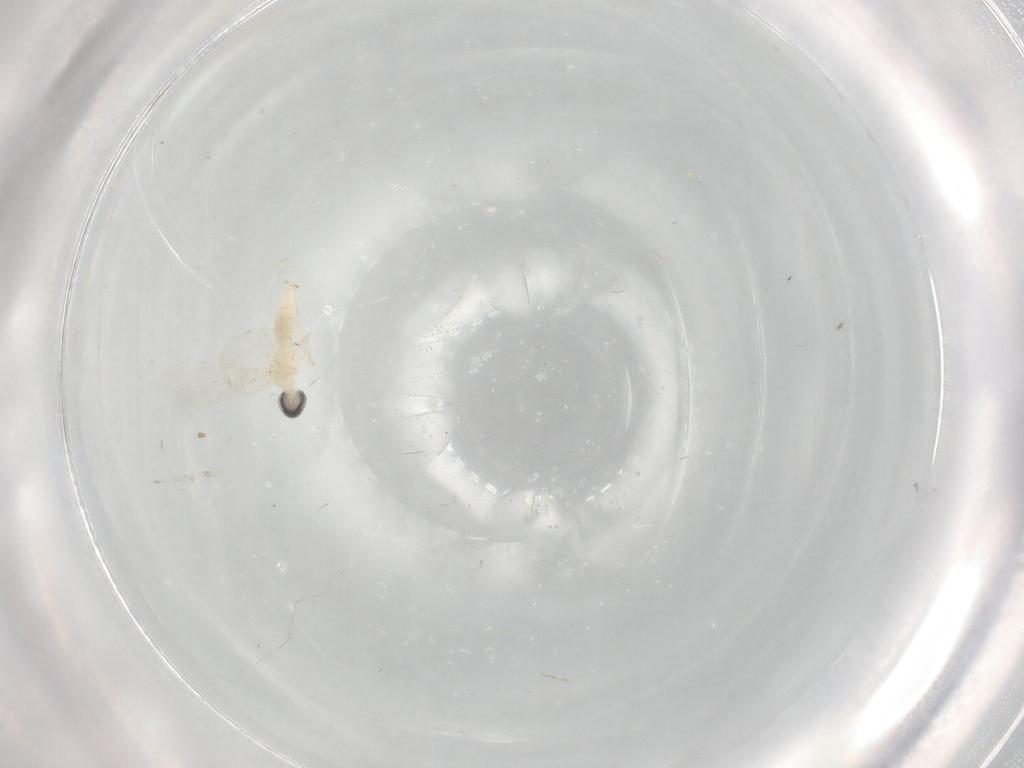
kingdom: Animalia
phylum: Arthropoda
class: Insecta
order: Diptera
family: Cecidomyiidae
